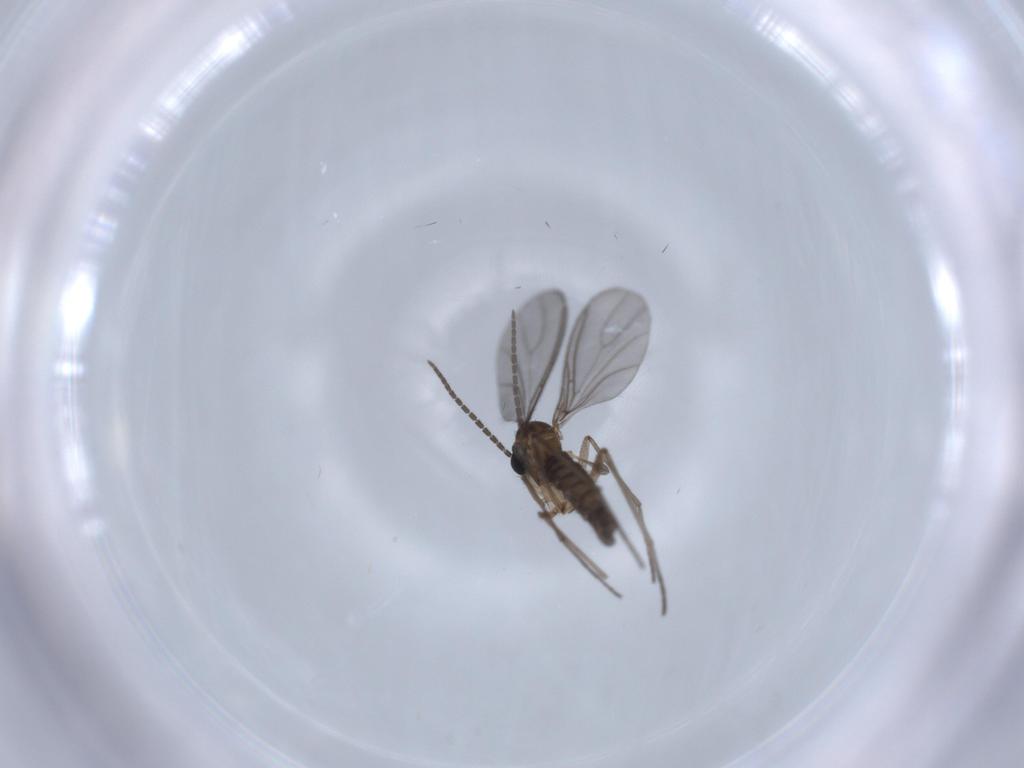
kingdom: Animalia
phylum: Arthropoda
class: Insecta
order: Diptera
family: Sciaridae
